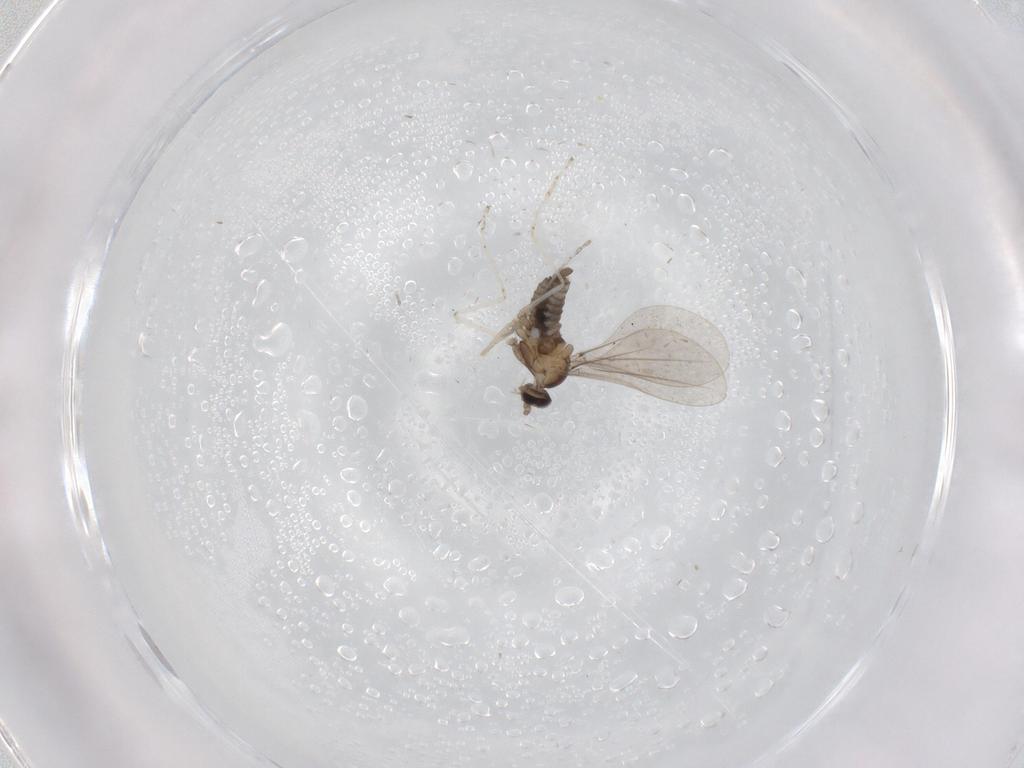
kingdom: Animalia
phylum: Arthropoda
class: Insecta
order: Diptera
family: Cecidomyiidae
